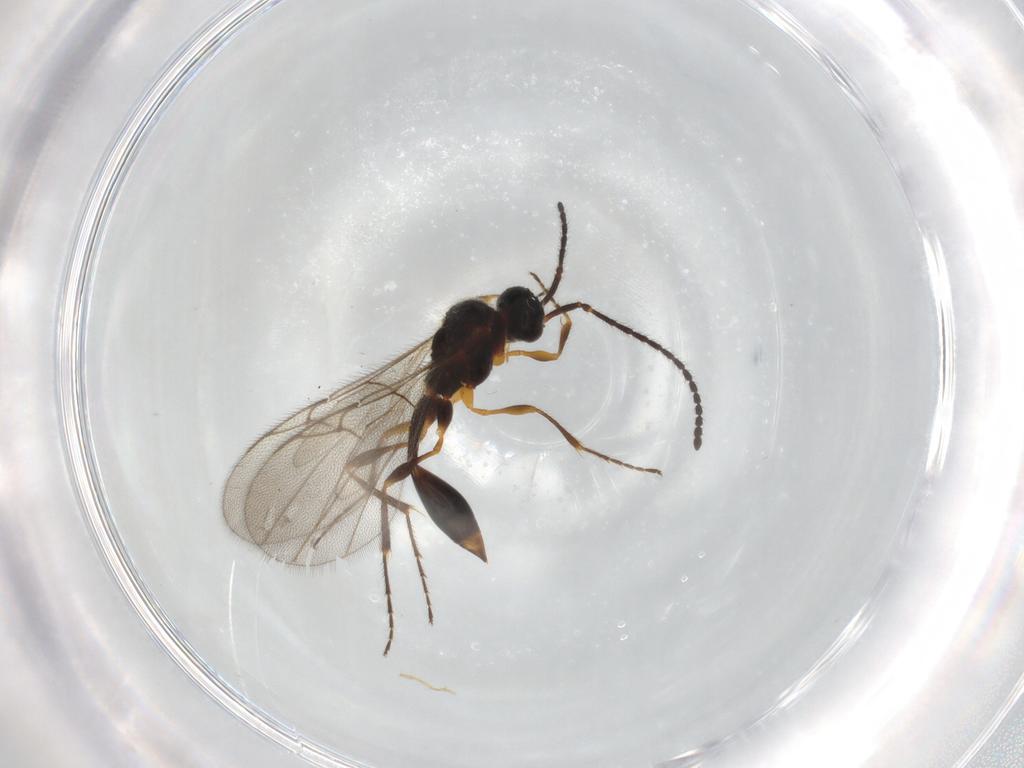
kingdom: Animalia
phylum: Arthropoda
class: Insecta
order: Hymenoptera
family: Diapriidae
